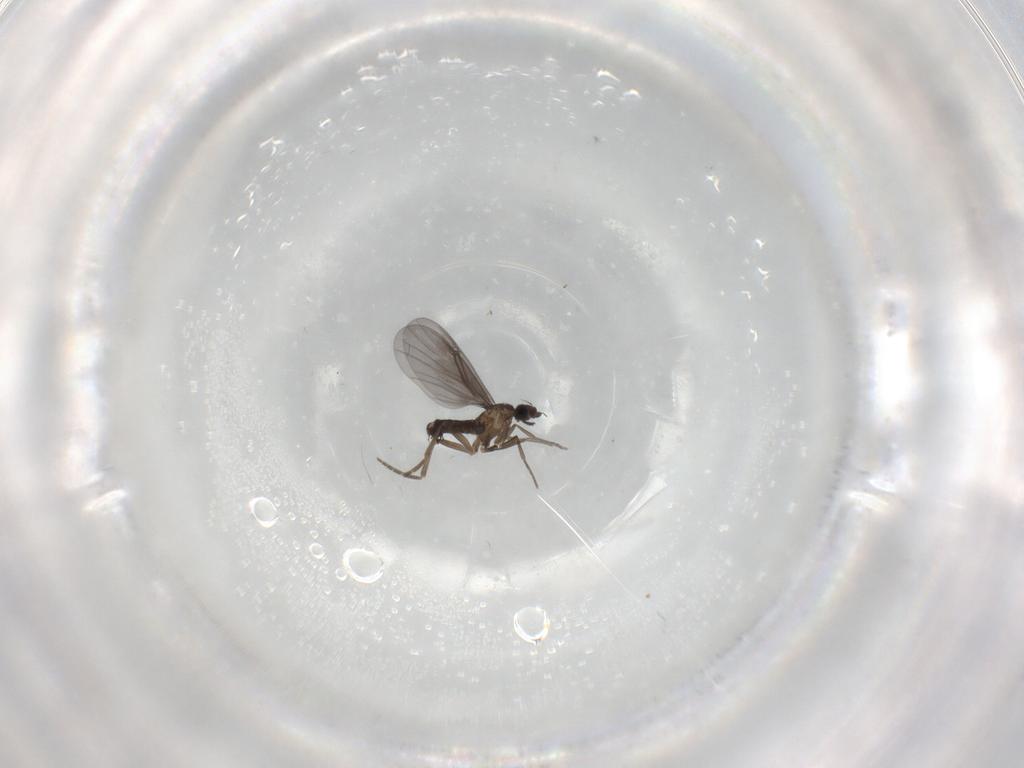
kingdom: Animalia
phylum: Arthropoda
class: Insecta
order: Diptera
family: Phoridae
